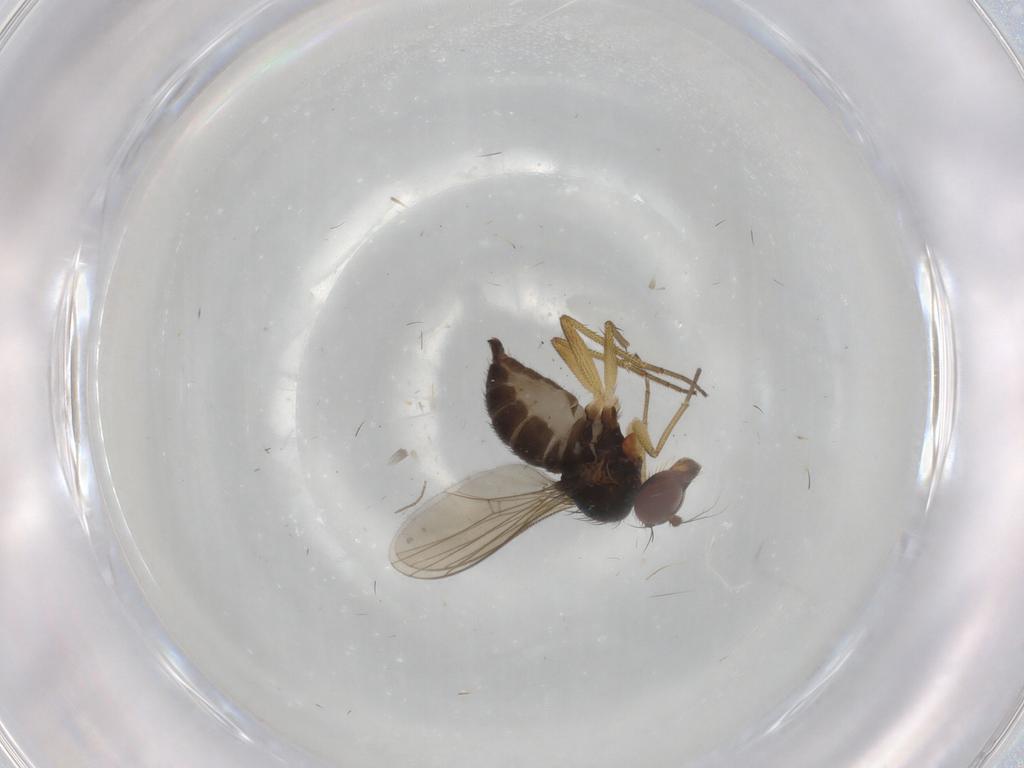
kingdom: Animalia
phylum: Arthropoda
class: Insecta
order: Diptera
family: Dolichopodidae
